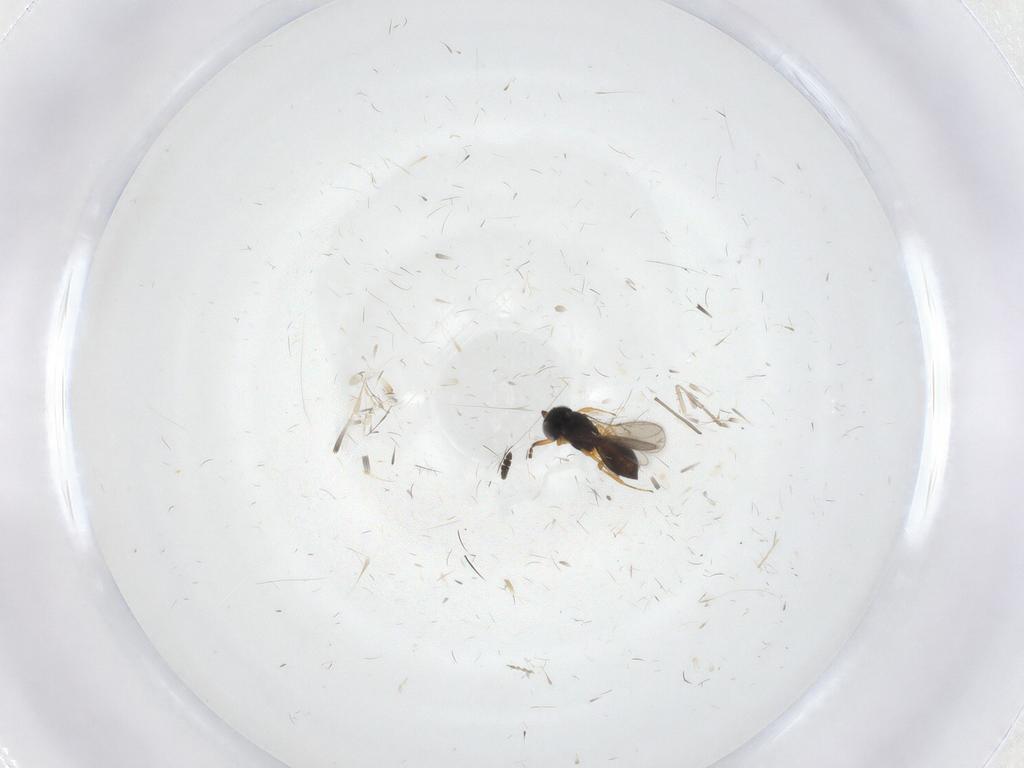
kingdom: Animalia
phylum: Arthropoda
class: Insecta
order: Hymenoptera
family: Scelionidae
